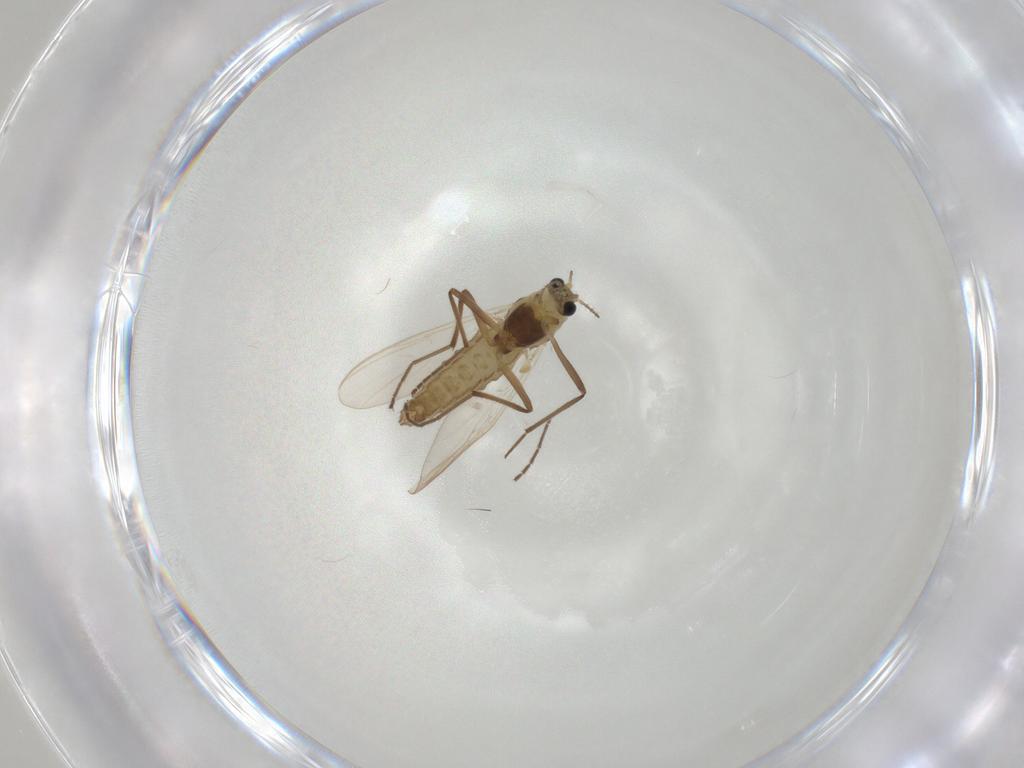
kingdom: Animalia
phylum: Arthropoda
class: Insecta
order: Diptera
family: Chironomidae
